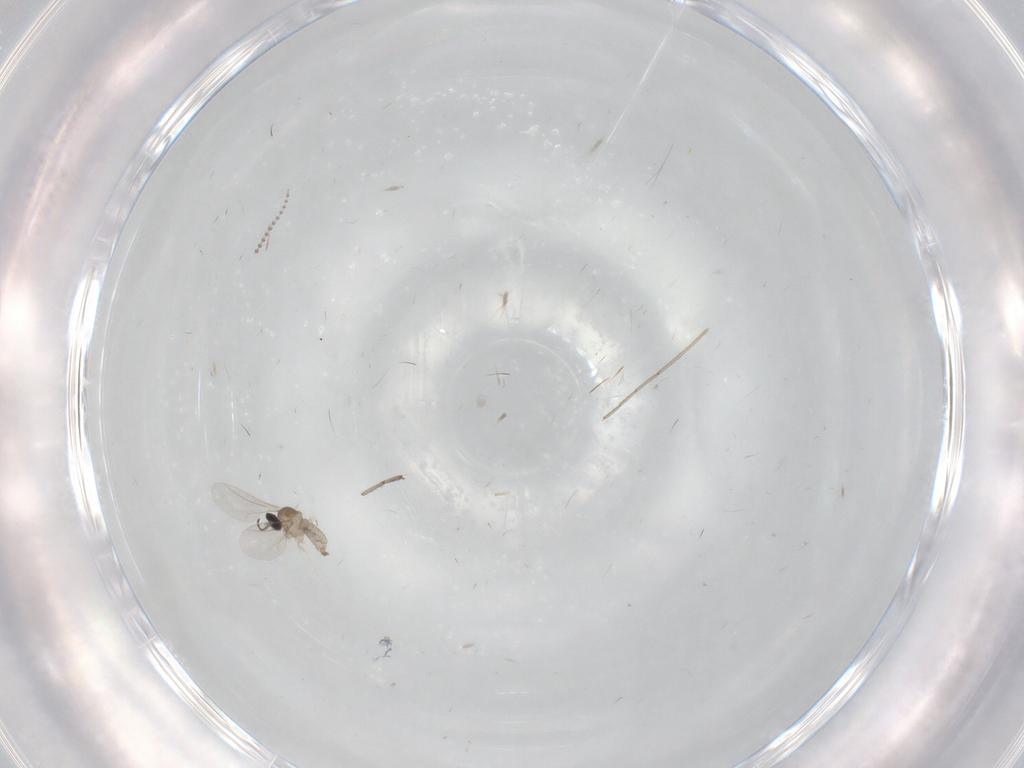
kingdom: Animalia
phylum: Arthropoda
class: Insecta
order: Diptera
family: Cecidomyiidae
